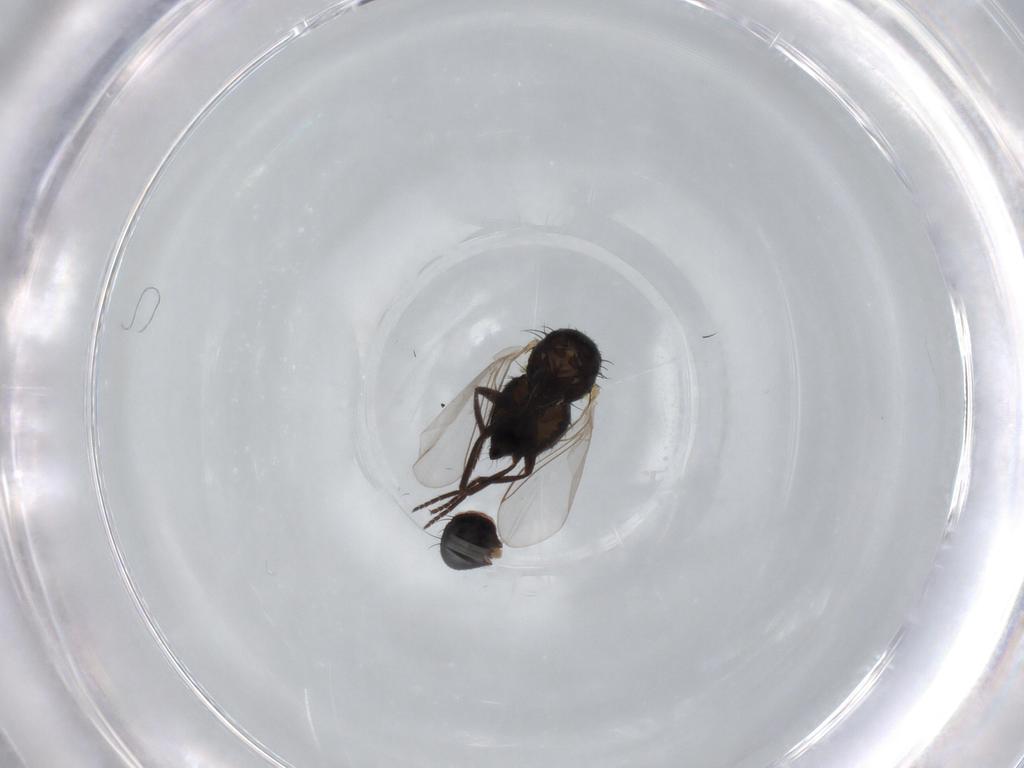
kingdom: Animalia
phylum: Arthropoda
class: Insecta
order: Diptera
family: Agromyzidae
